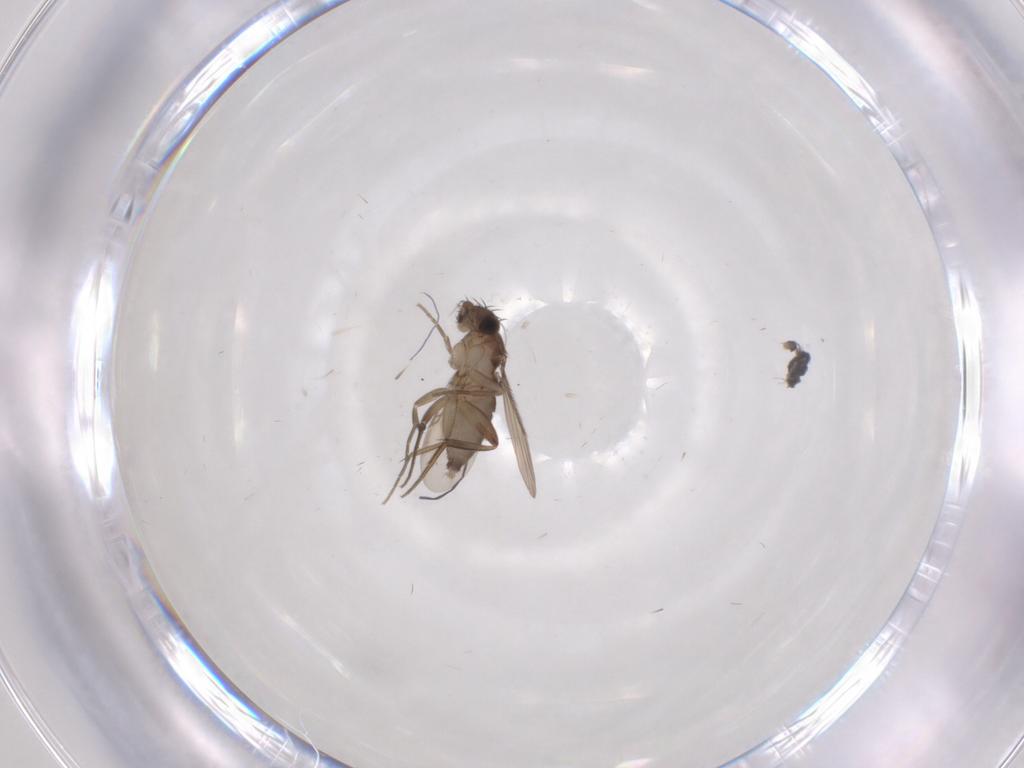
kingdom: Animalia
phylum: Arthropoda
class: Insecta
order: Diptera
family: Phoridae
